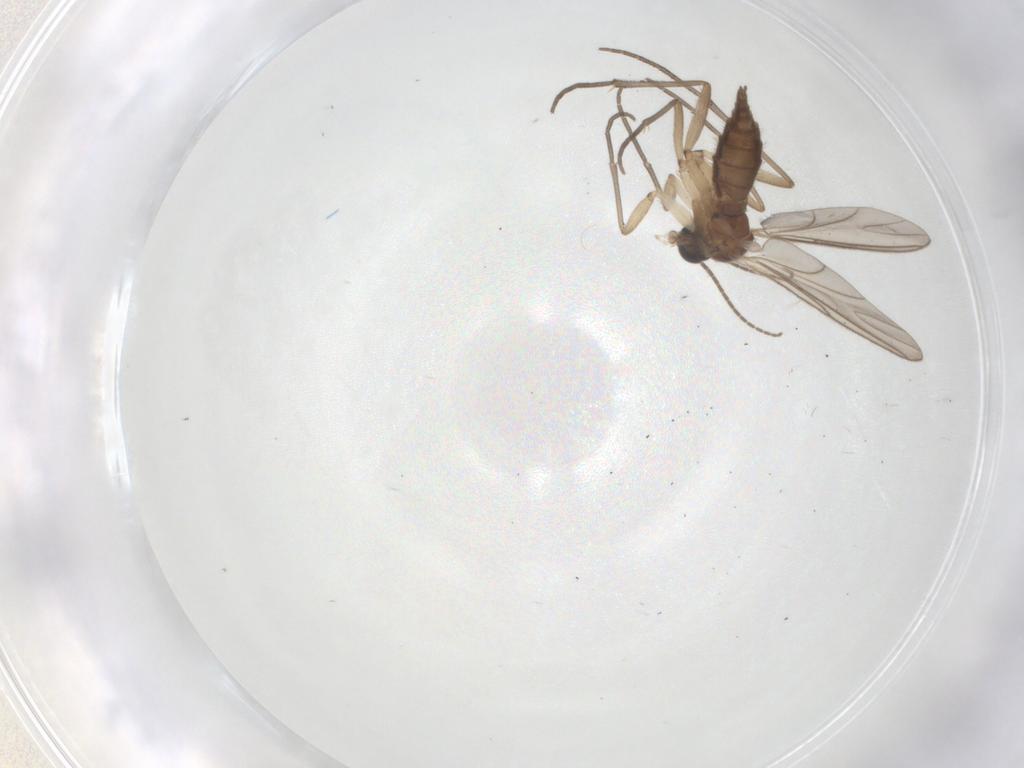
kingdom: Animalia
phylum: Arthropoda
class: Insecta
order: Diptera
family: Sciaridae
